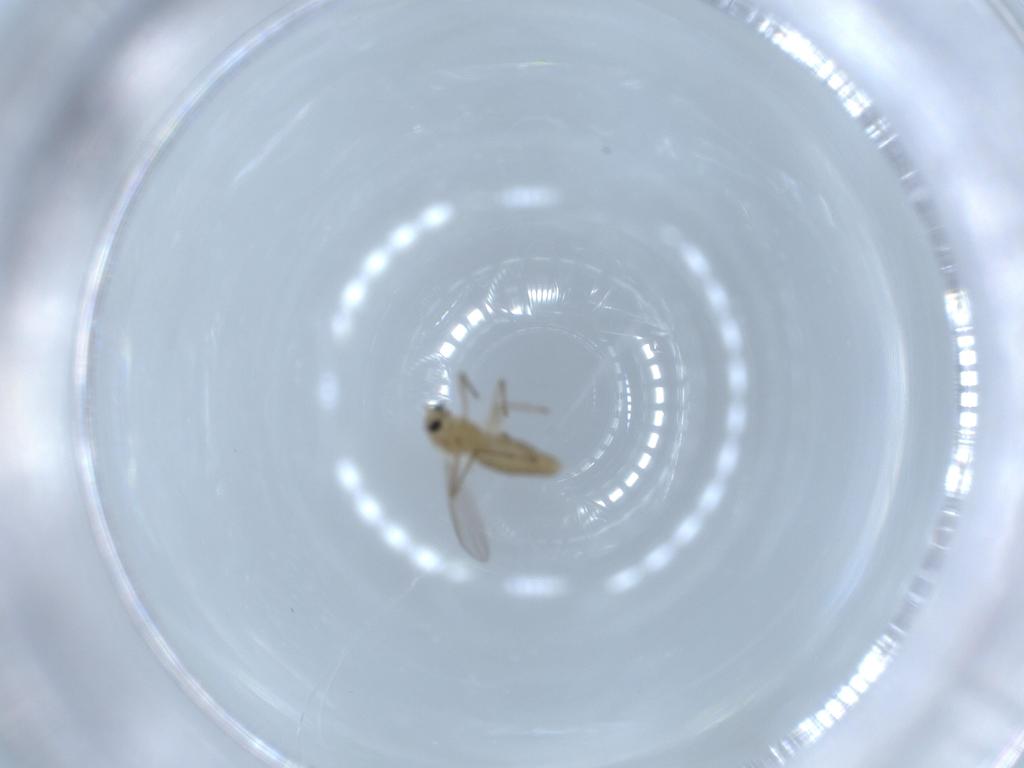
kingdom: Animalia
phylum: Arthropoda
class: Insecta
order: Diptera
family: Chironomidae
